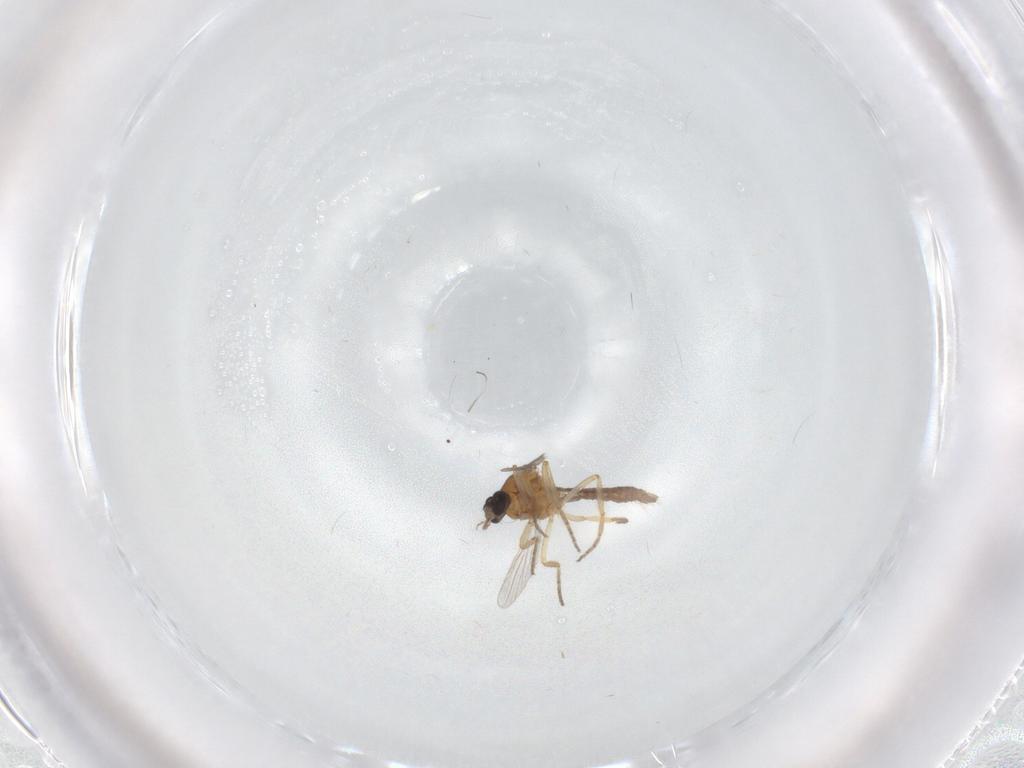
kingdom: Animalia
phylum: Arthropoda
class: Insecta
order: Diptera
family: Ceratopogonidae
